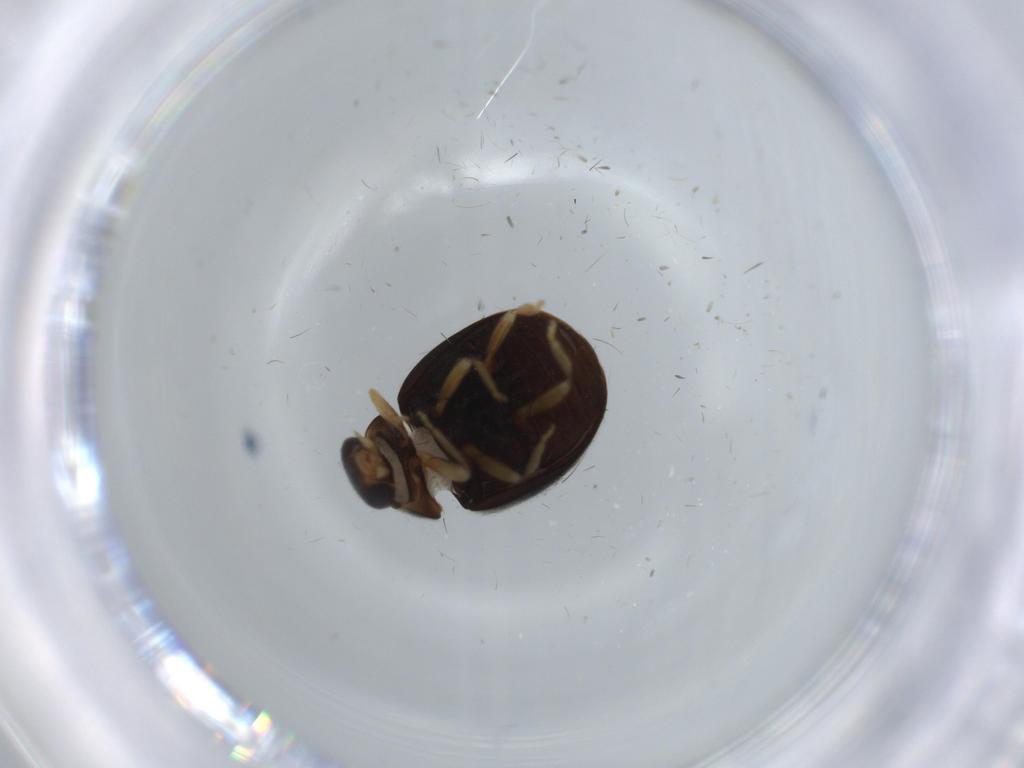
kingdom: Animalia
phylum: Arthropoda
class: Insecta
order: Coleoptera
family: Coccinellidae
